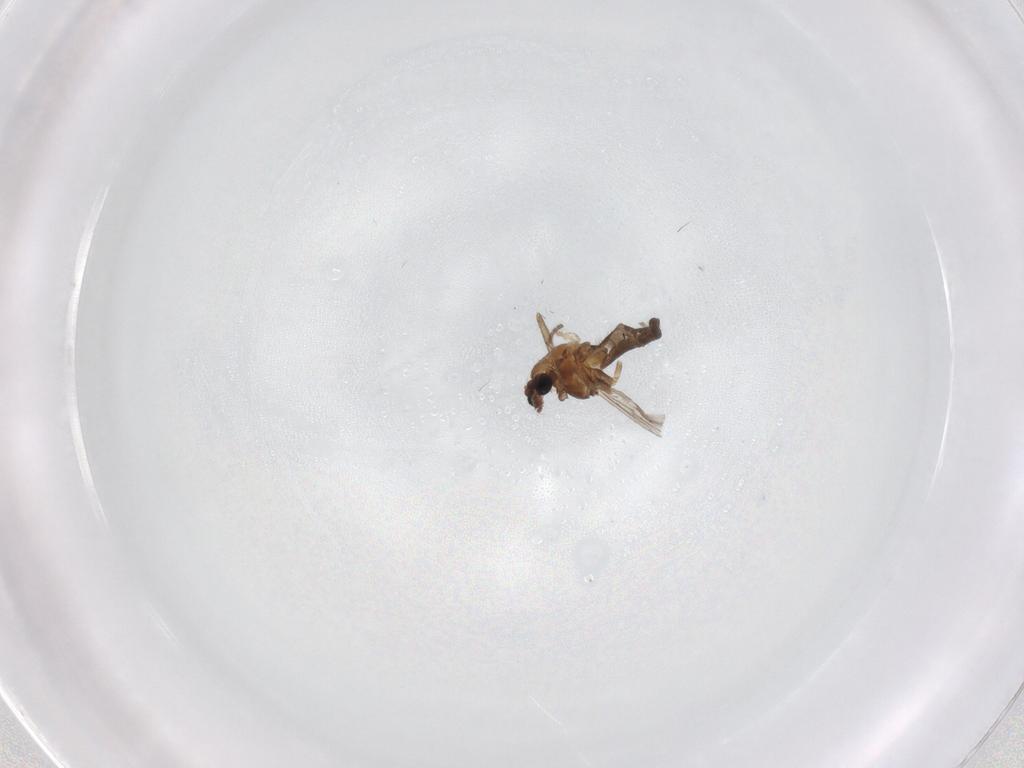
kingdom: Animalia
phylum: Arthropoda
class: Insecta
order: Diptera
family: Chironomidae
